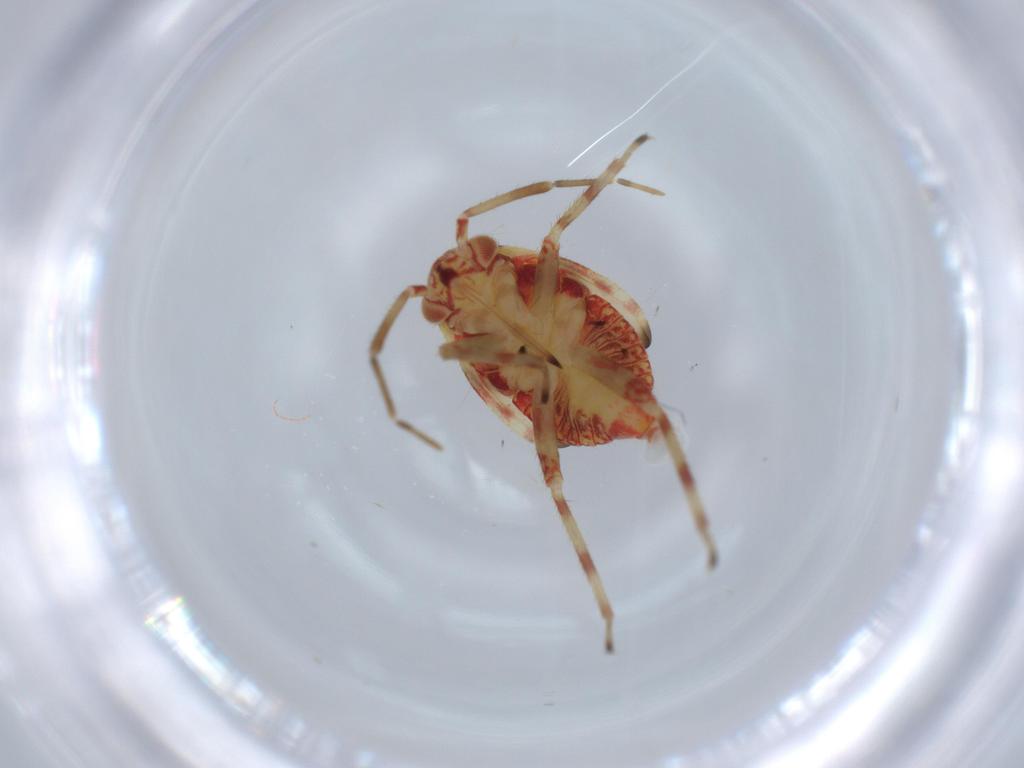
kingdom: Animalia
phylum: Arthropoda
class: Insecta
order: Hemiptera
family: Miridae
